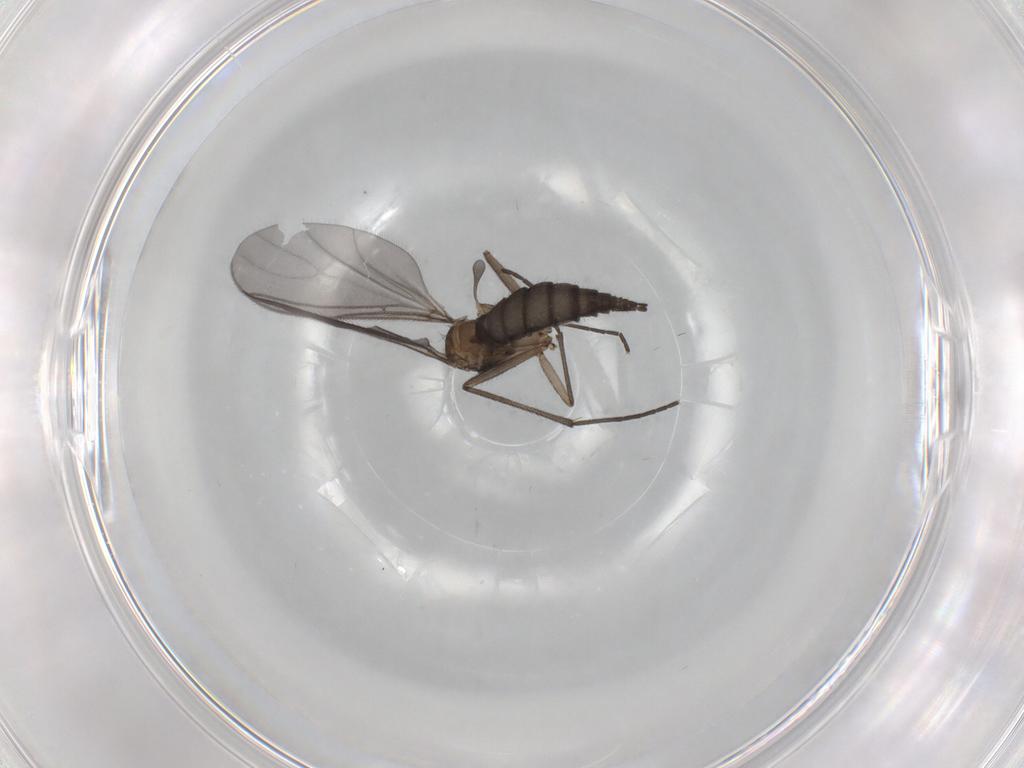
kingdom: Animalia
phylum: Arthropoda
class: Insecta
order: Diptera
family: Sciaridae
